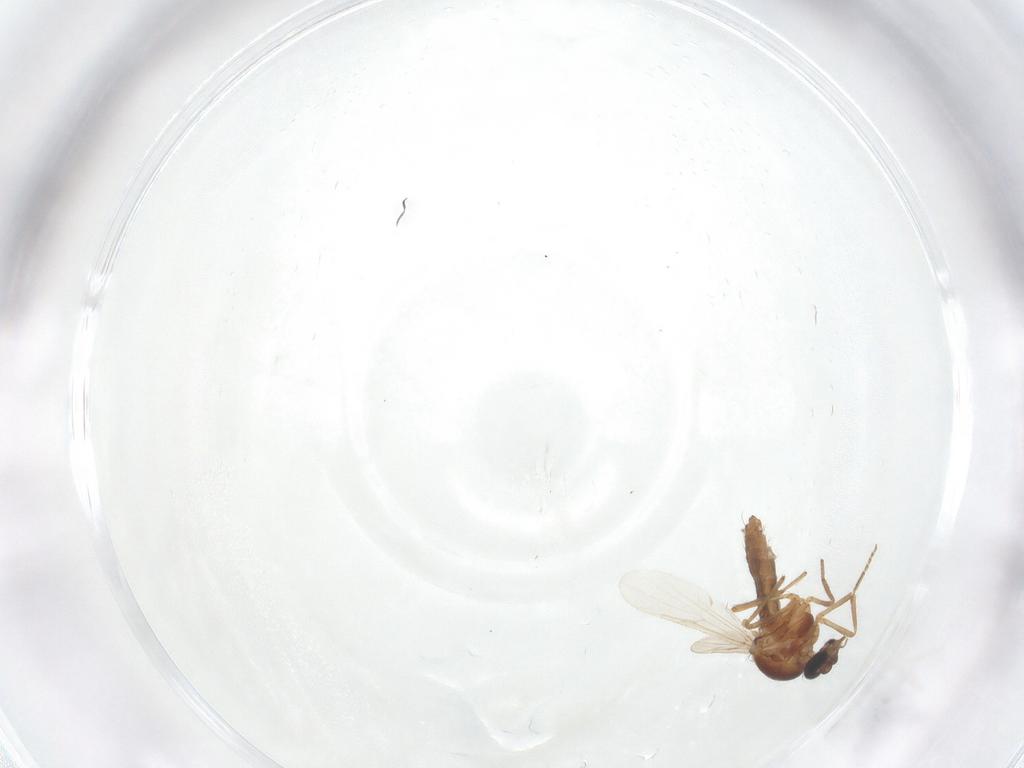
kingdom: Animalia
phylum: Arthropoda
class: Insecta
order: Diptera
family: Ceratopogonidae
